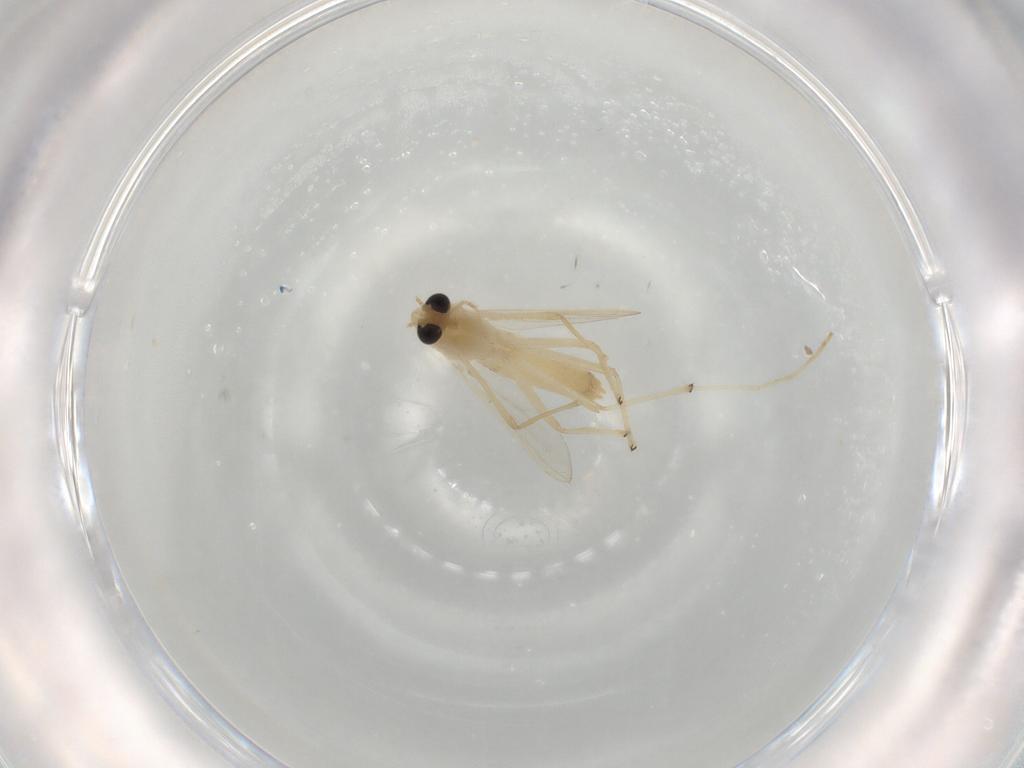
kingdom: Animalia
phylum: Arthropoda
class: Insecta
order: Diptera
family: Chironomidae
